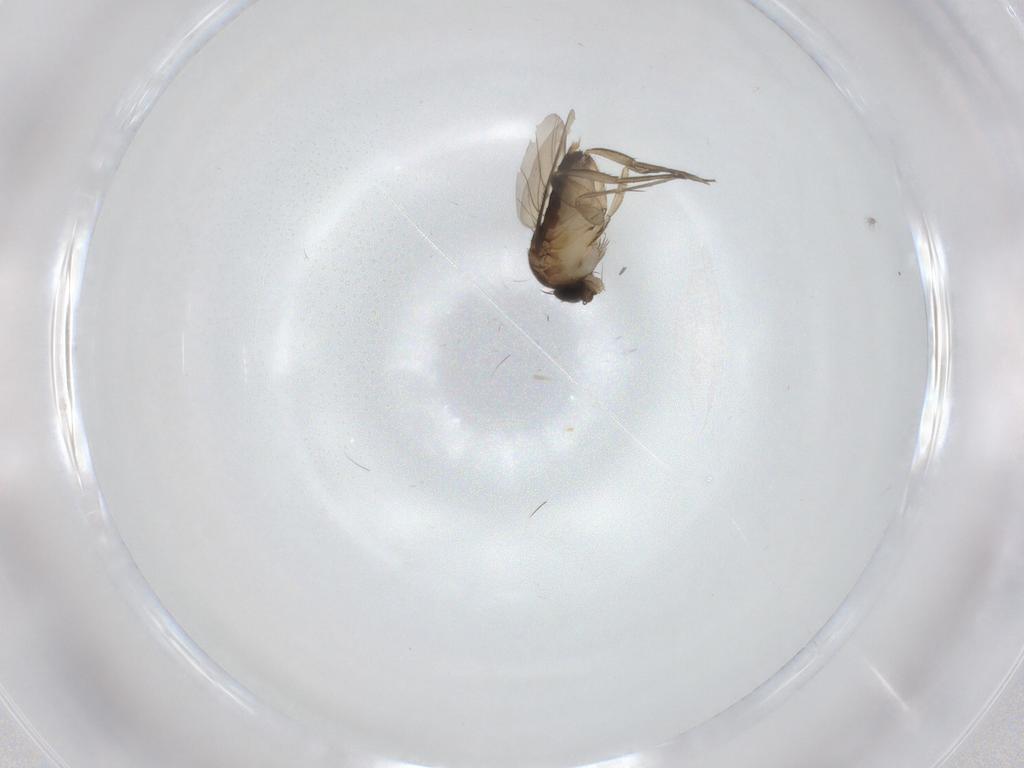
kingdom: Animalia
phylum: Arthropoda
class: Insecta
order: Diptera
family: Phoridae
